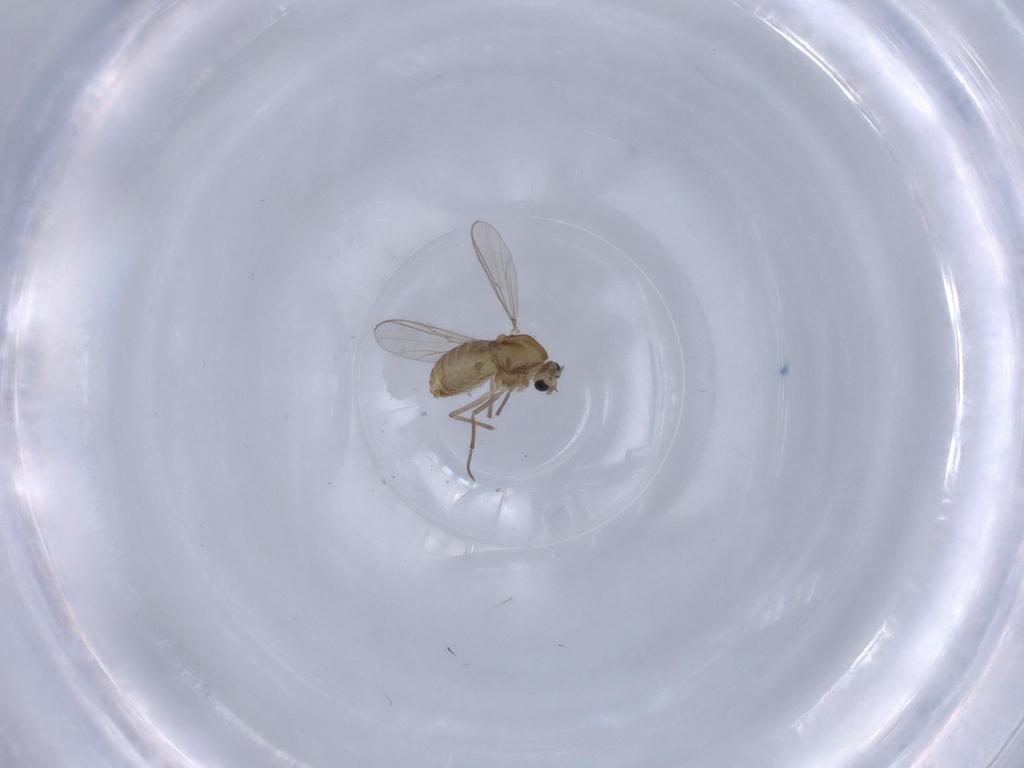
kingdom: Animalia
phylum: Arthropoda
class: Insecta
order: Diptera
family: Chironomidae
